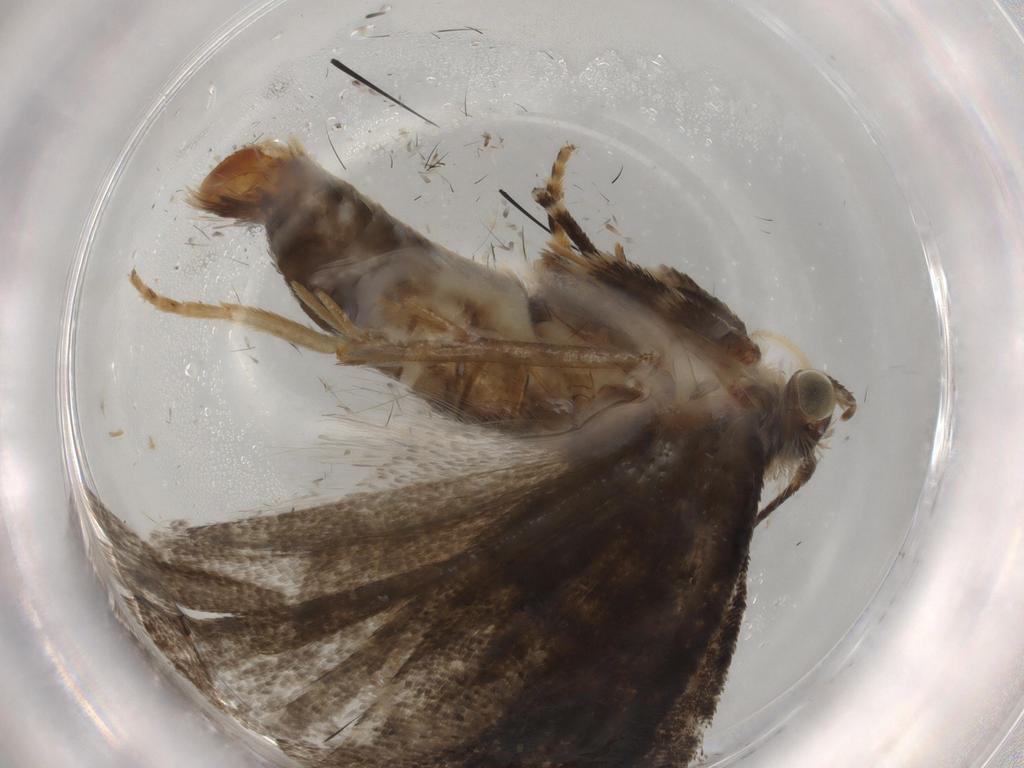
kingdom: Animalia
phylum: Arthropoda
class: Insecta
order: Lepidoptera
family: Tortricidae
